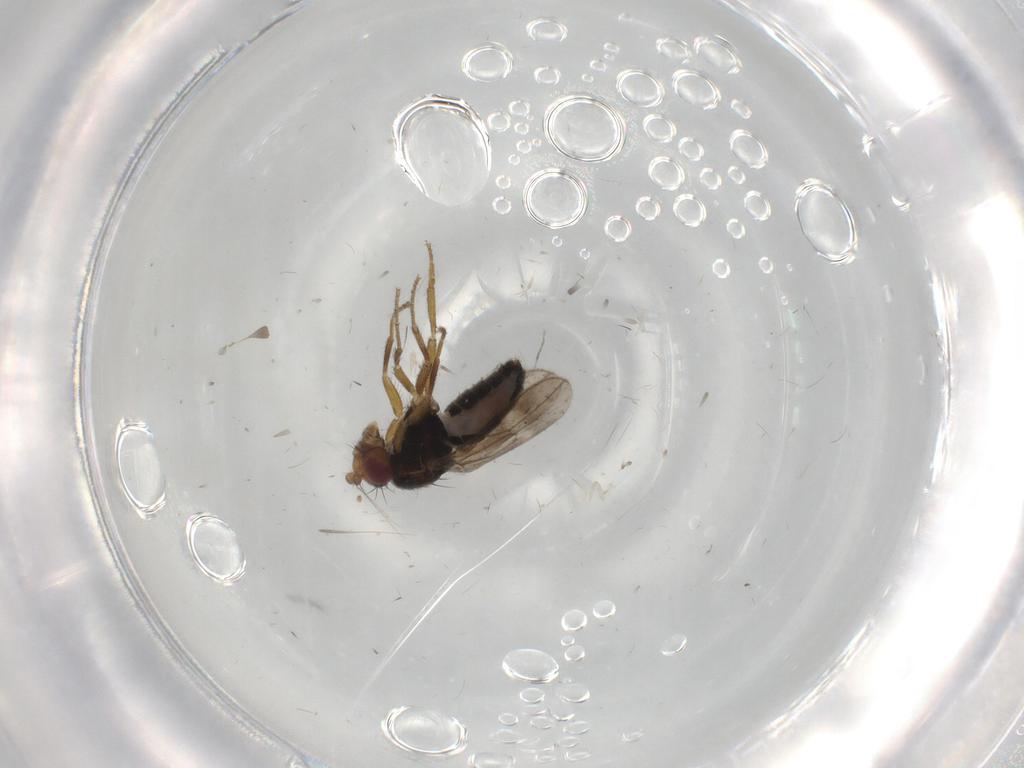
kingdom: Animalia
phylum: Arthropoda
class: Insecta
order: Diptera
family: Sphaeroceridae
